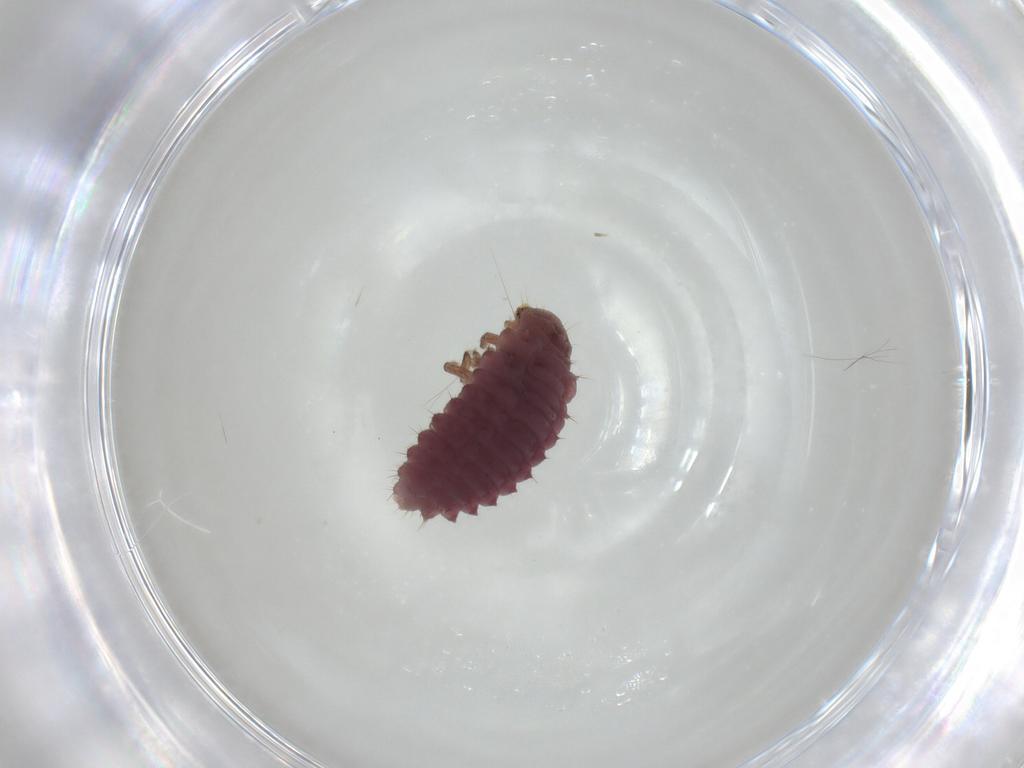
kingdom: Animalia
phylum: Arthropoda
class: Insecta
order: Coleoptera
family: Coccinellidae
